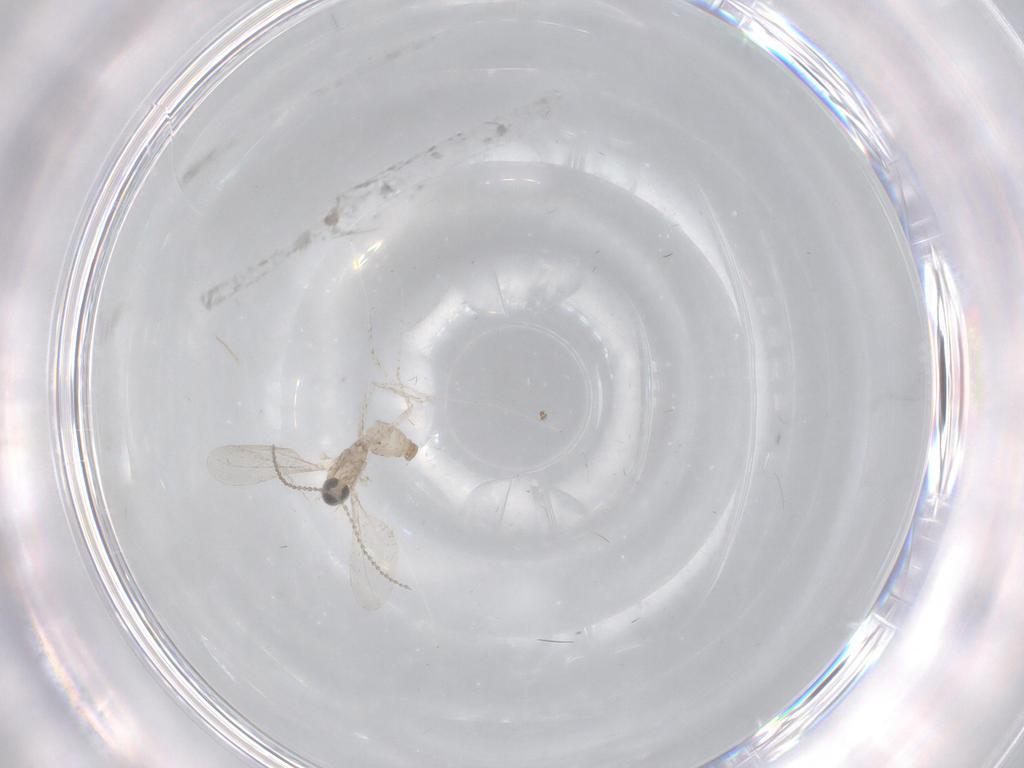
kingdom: Animalia
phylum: Arthropoda
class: Insecta
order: Diptera
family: Cecidomyiidae
